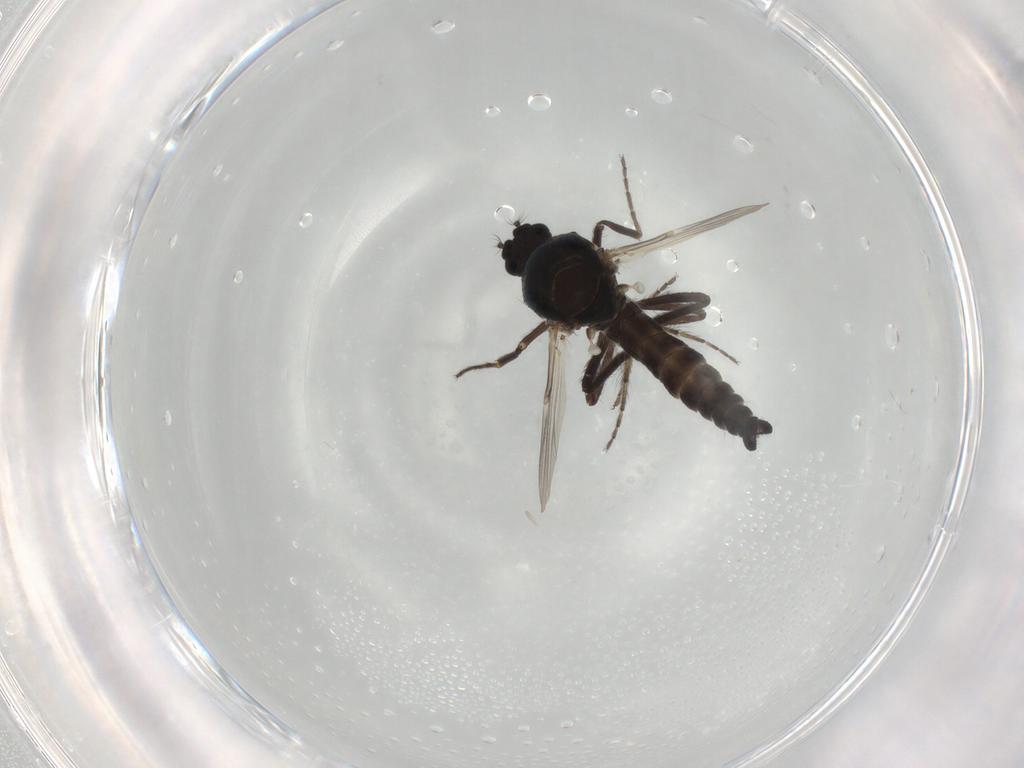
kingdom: Animalia
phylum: Arthropoda
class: Insecta
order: Diptera
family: Ceratopogonidae
